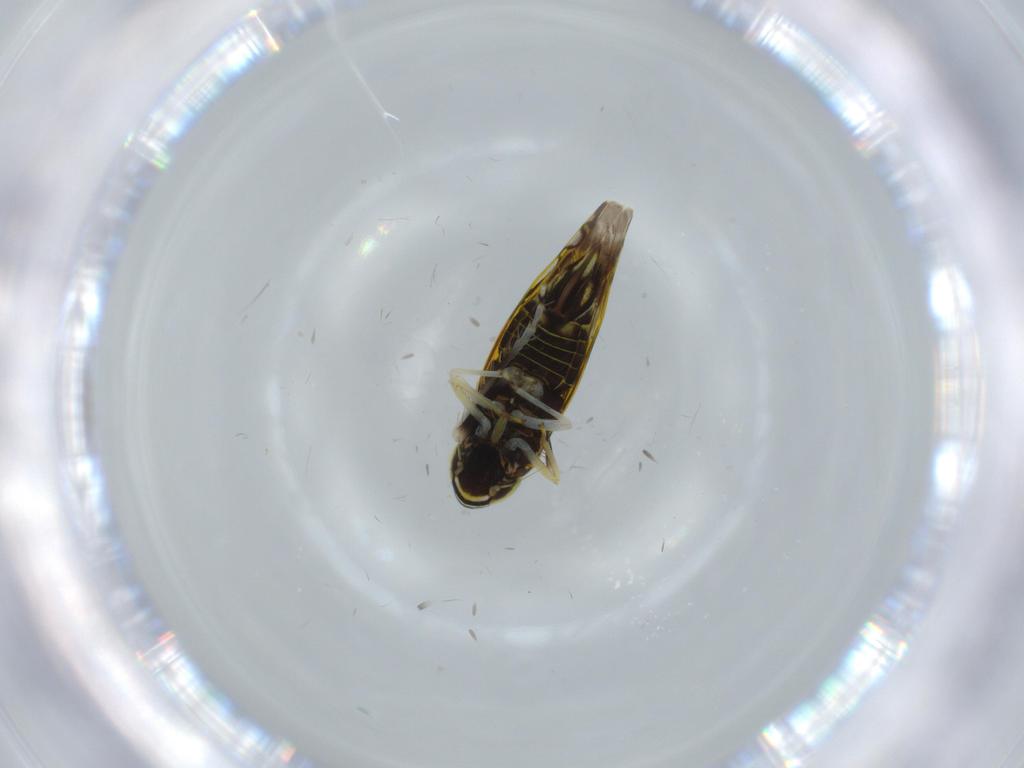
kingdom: Animalia
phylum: Arthropoda
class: Insecta
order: Hemiptera
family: Cicadellidae
